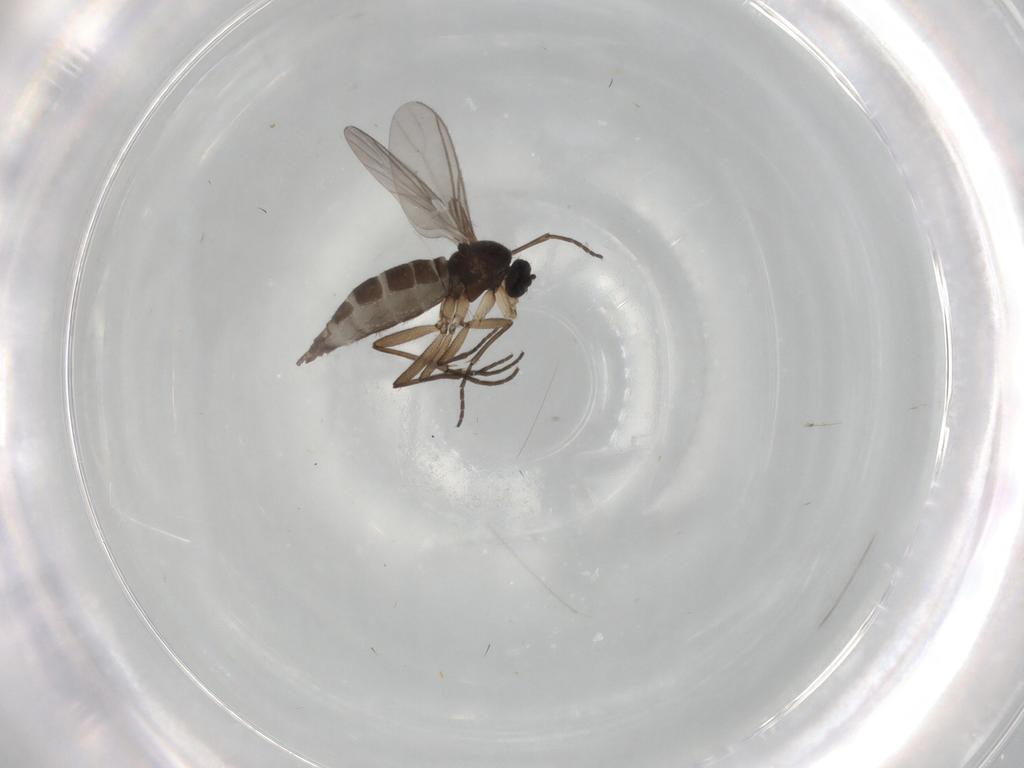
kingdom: Animalia
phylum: Arthropoda
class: Insecta
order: Diptera
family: Sciaridae
